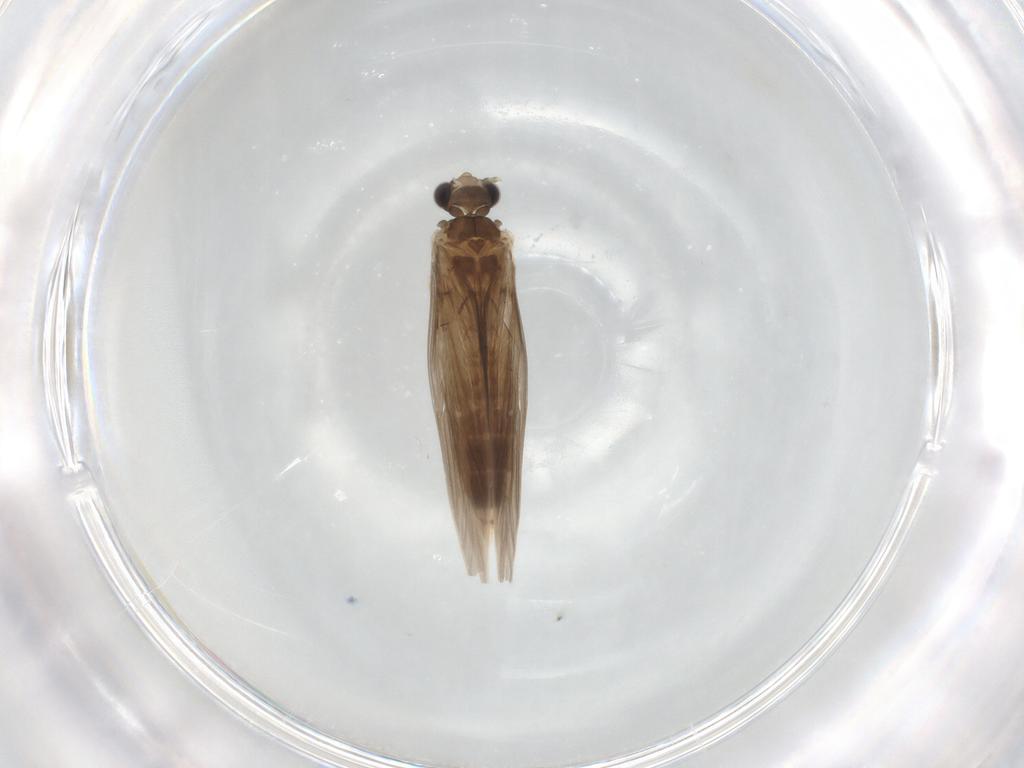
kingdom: Animalia
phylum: Arthropoda
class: Insecta
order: Trichoptera
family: Hydroptilidae
